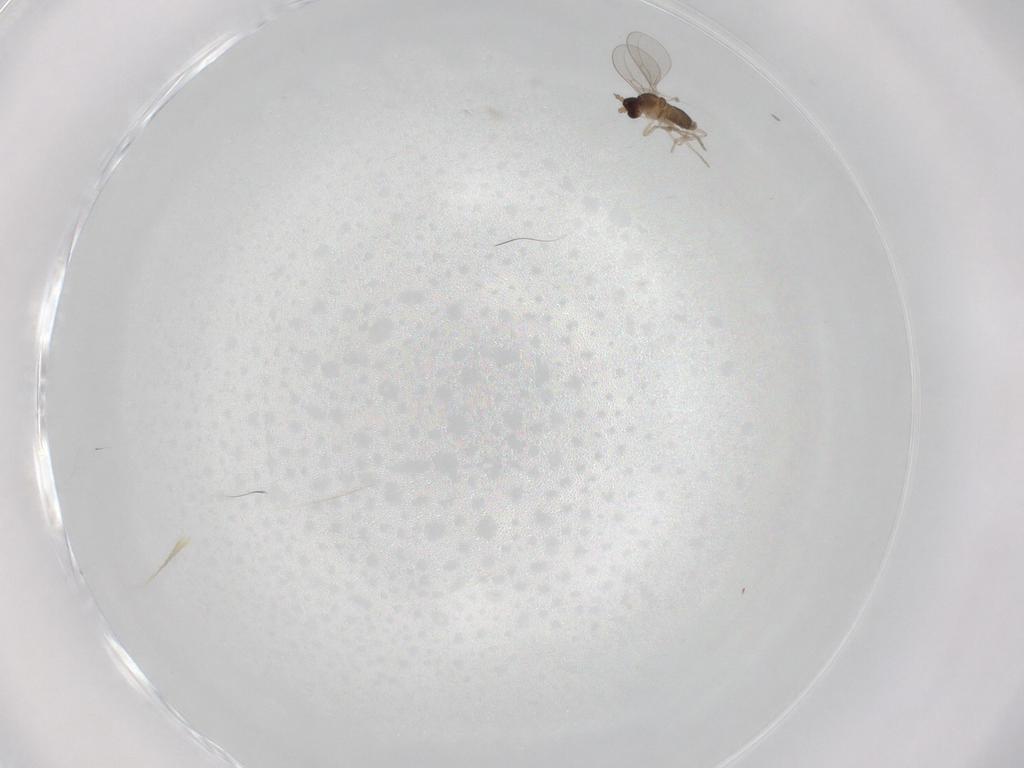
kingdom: Animalia
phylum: Arthropoda
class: Insecta
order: Diptera
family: Cecidomyiidae
